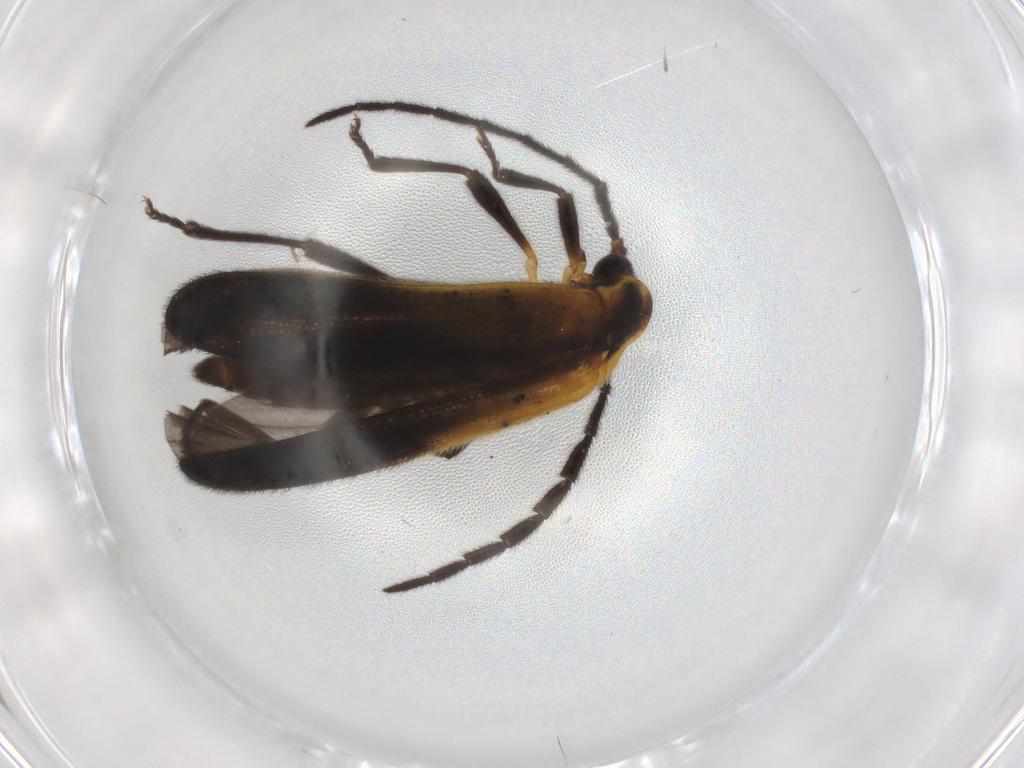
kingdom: Animalia
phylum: Arthropoda
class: Insecta
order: Coleoptera
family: Lycidae
